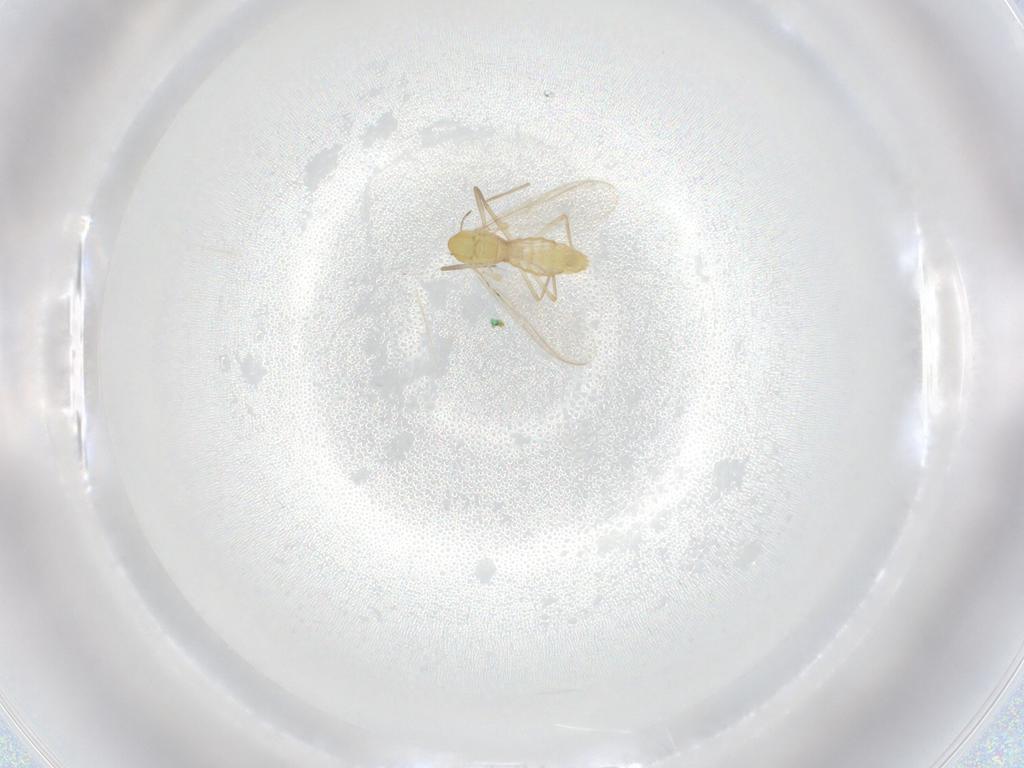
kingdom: Animalia
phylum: Arthropoda
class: Insecta
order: Diptera
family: Chironomidae
